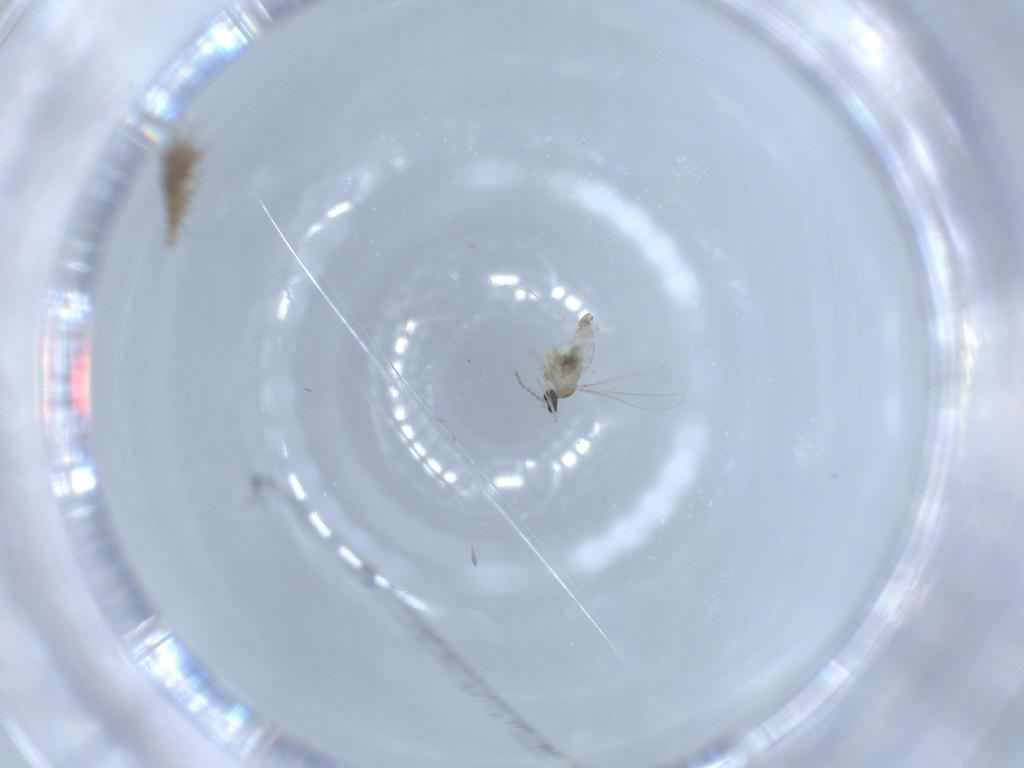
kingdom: Animalia
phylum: Arthropoda
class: Insecta
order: Diptera
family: Cecidomyiidae
